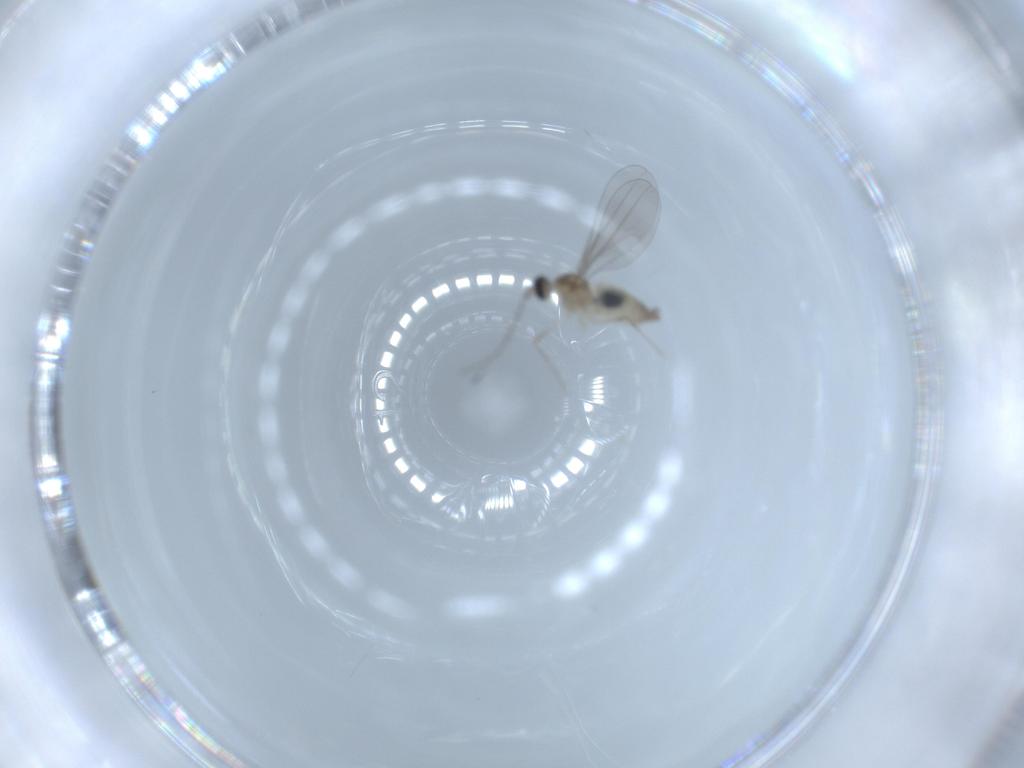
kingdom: Animalia
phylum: Arthropoda
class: Insecta
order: Diptera
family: Cecidomyiidae
